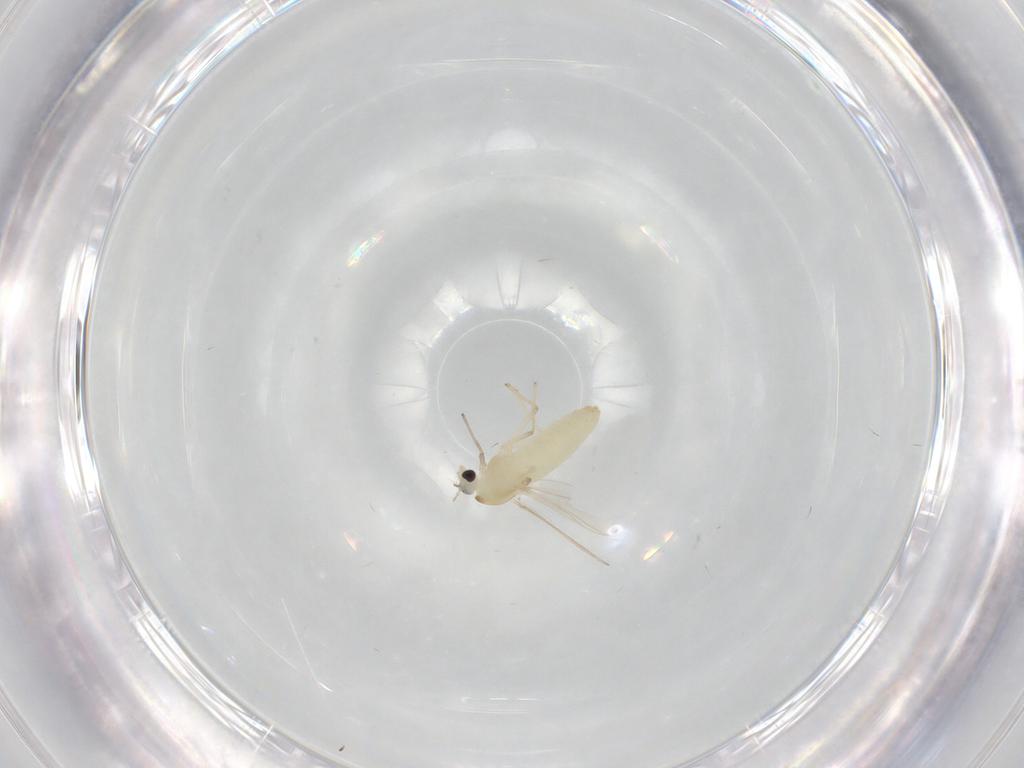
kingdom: Animalia
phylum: Arthropoda
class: Insecta
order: Diptera
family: Chironomidae
